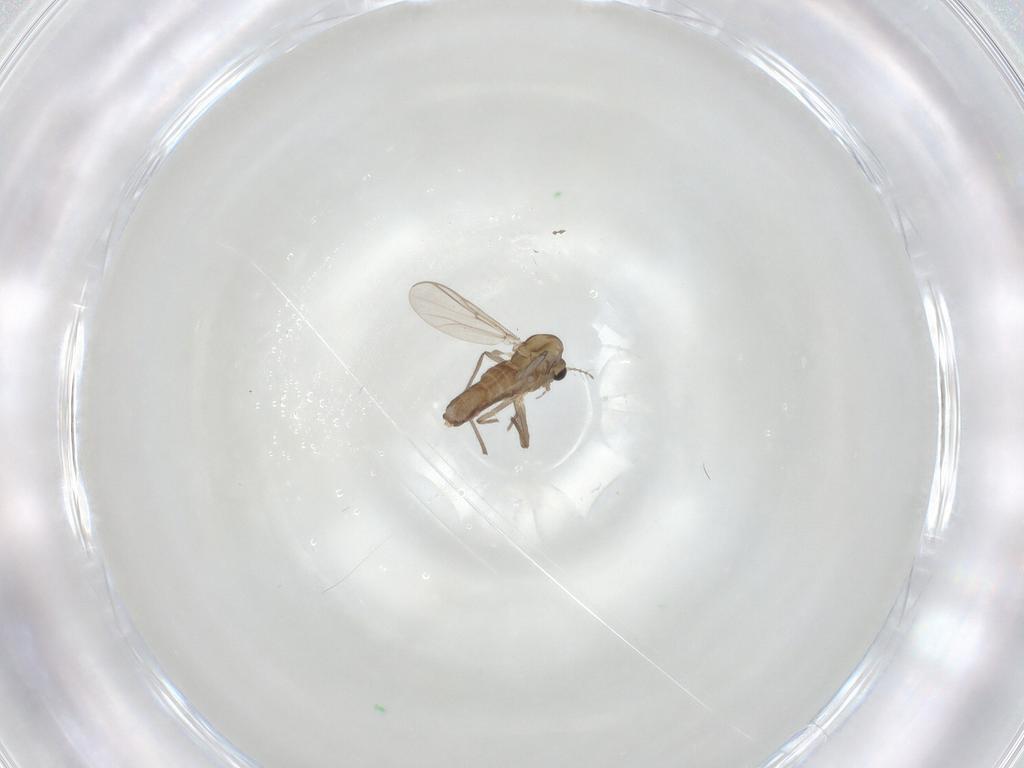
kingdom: Animalia
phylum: Arthropoda
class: Insecta
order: Diptera
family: Chironomidae
